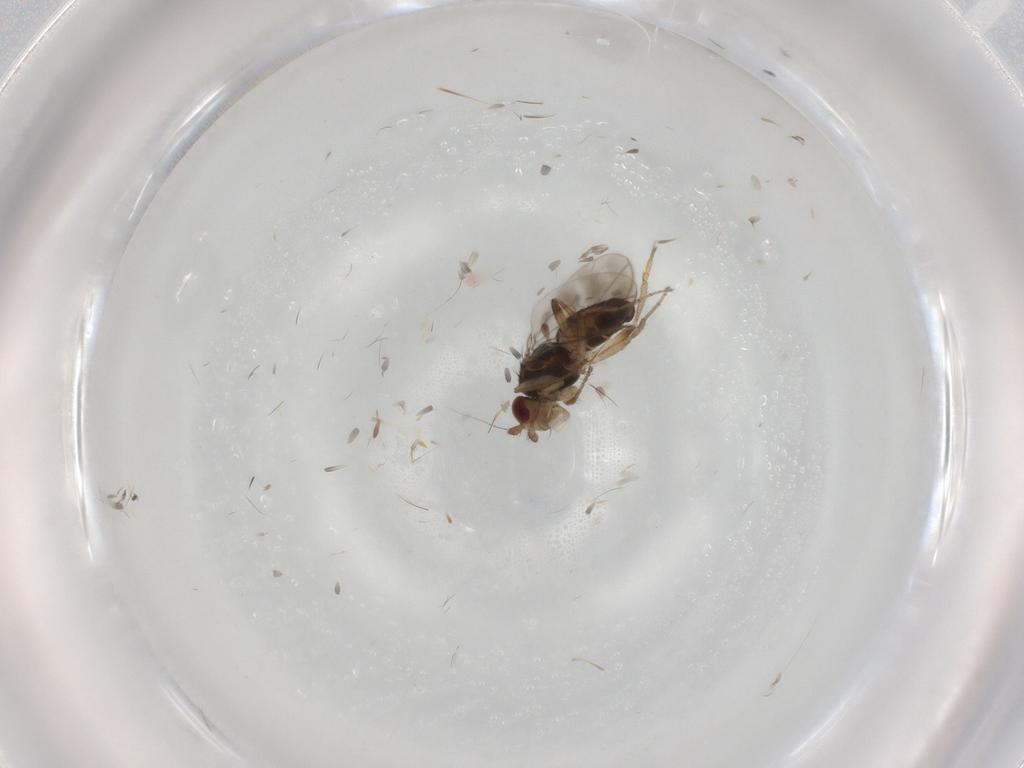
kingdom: Animalia
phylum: Arthropoda
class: Insecta
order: Diptera
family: Sphaeroceridae
